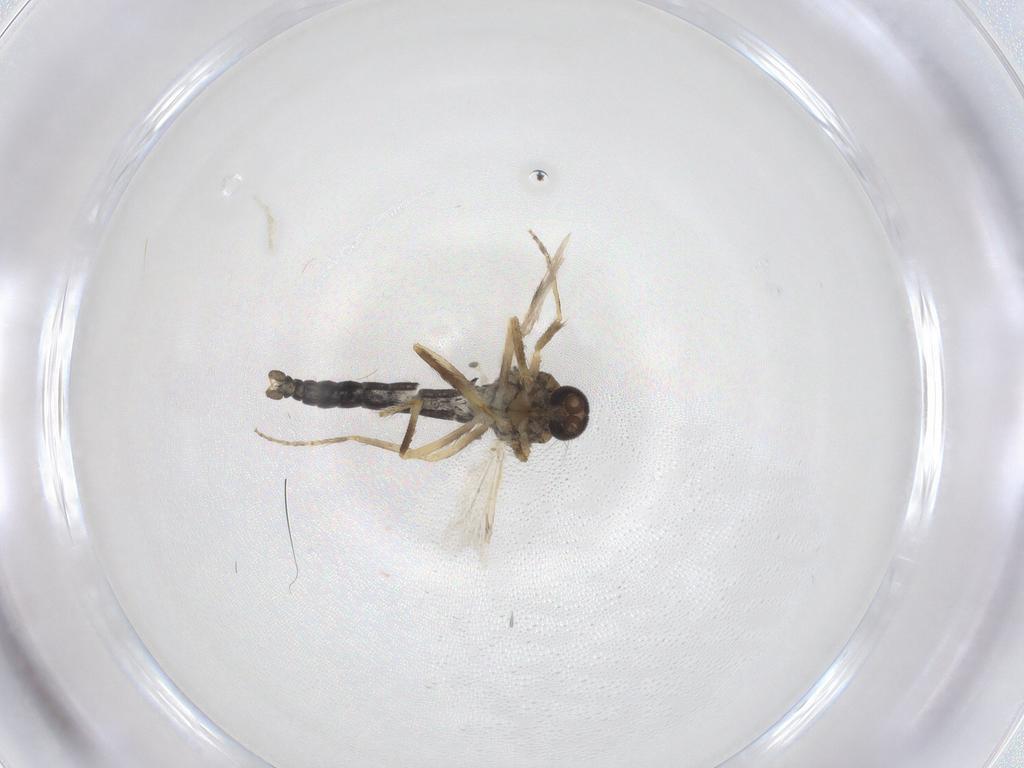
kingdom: Animalia
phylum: Arthropoda
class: Insecta
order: Diptera
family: Ceratopogonidae
